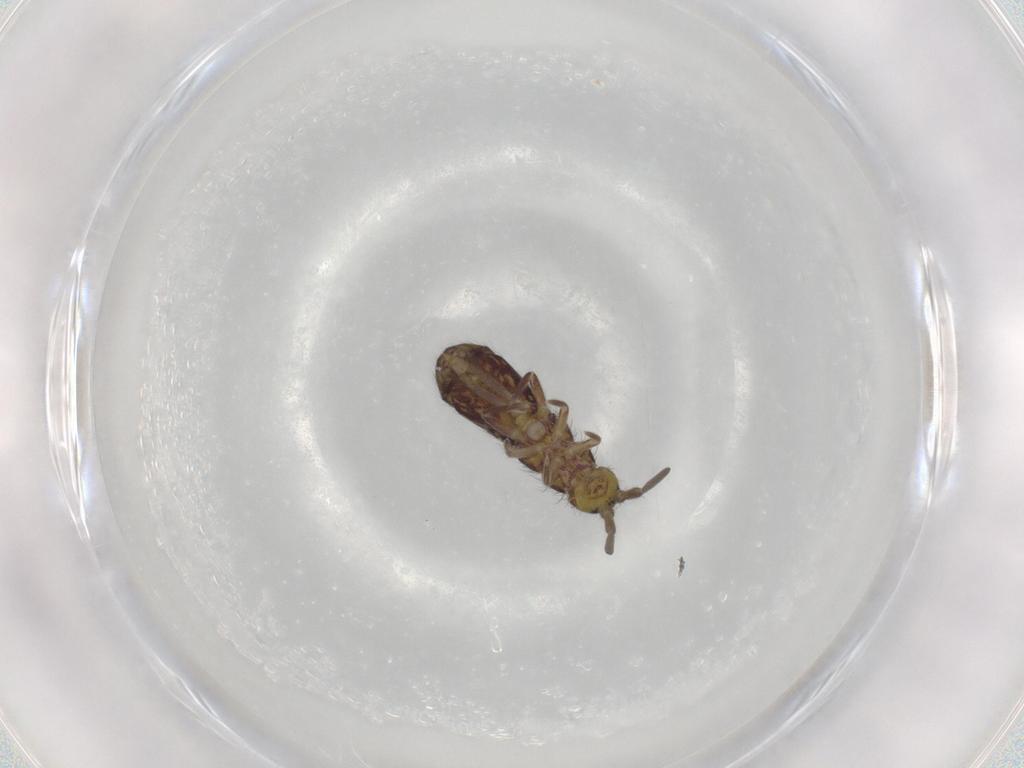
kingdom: Animalia
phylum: Arthropoda
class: Collembola
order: Entomobryomorpha
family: Isotomidae
